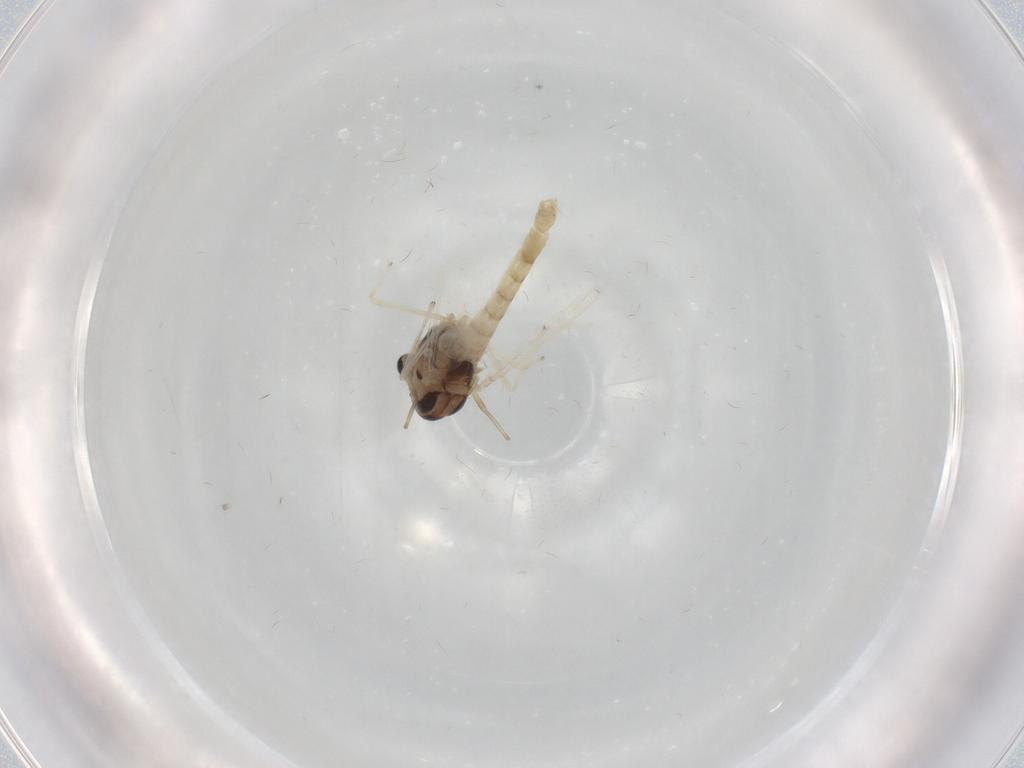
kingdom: Animalia
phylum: Arthropoda
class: Insecta
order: Diptera
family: Chironomidae
